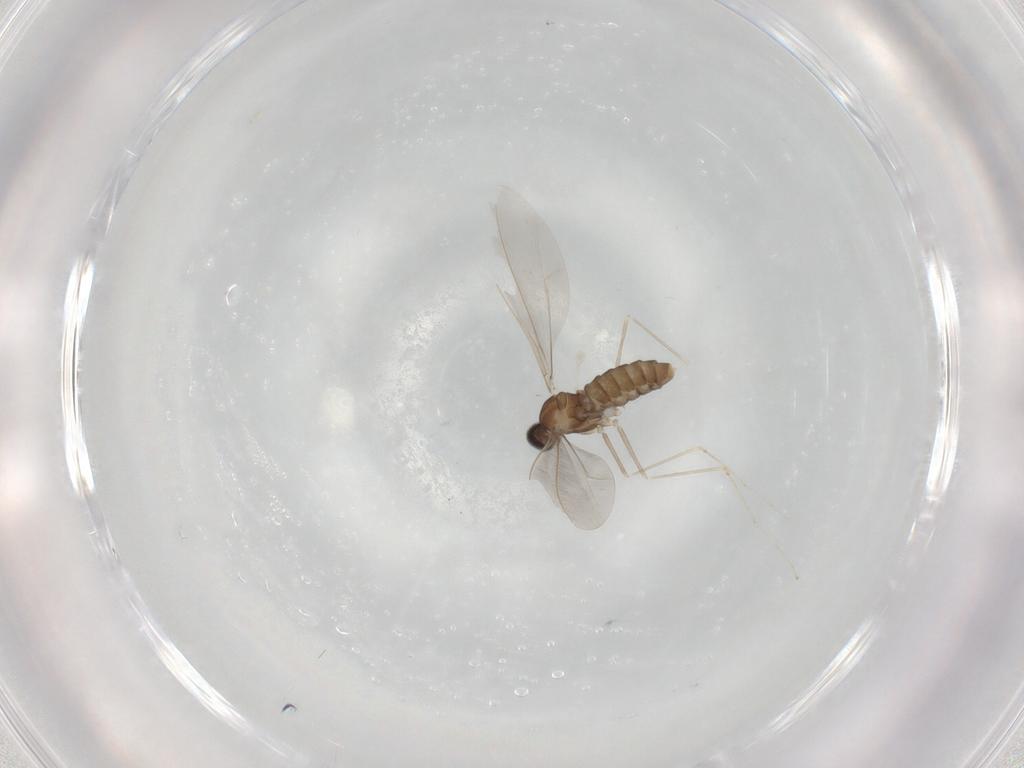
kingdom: Animalia
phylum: Arthropoda
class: Insecta
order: Diptera
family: Cecidomyiidae
